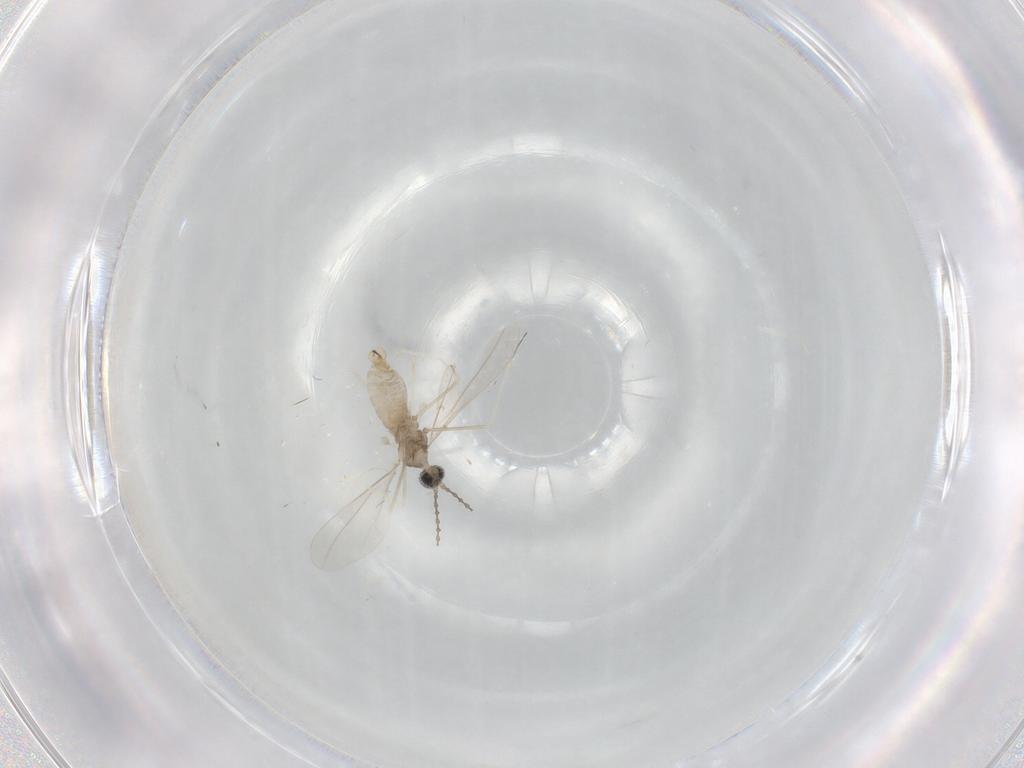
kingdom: Animalia
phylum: Arthropoda
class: Insecta
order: Diptera
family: Cecidomyiidae
